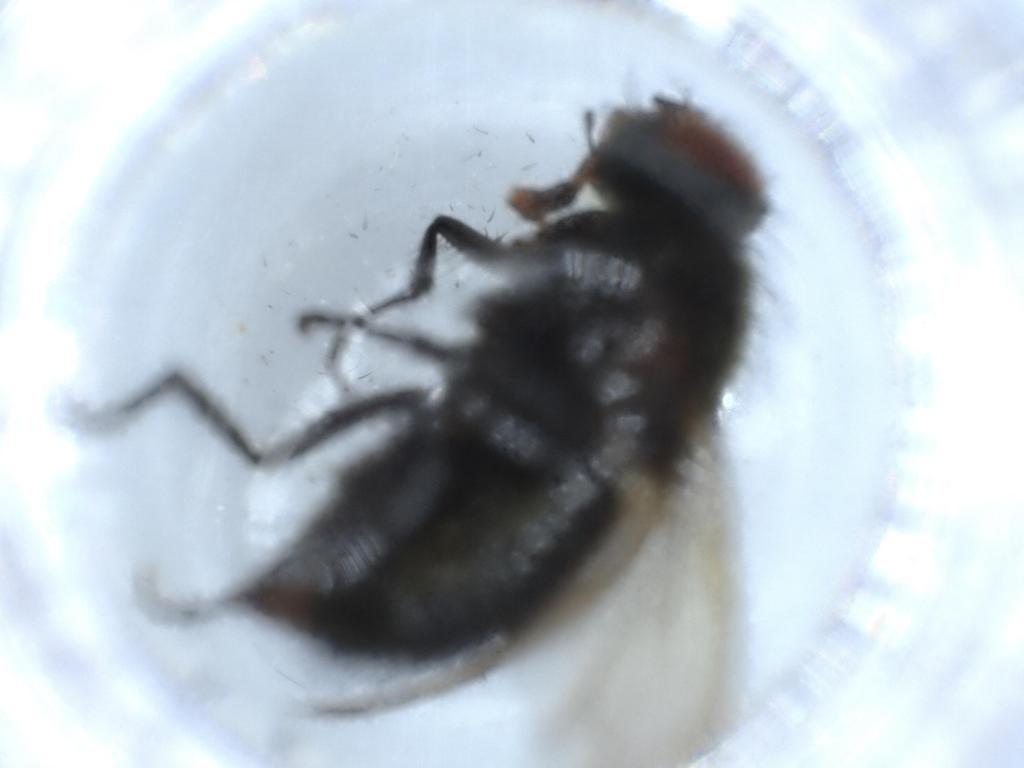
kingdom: Animalia
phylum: Arthropoda
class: Insecta
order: Diptera
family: Polleniidae
